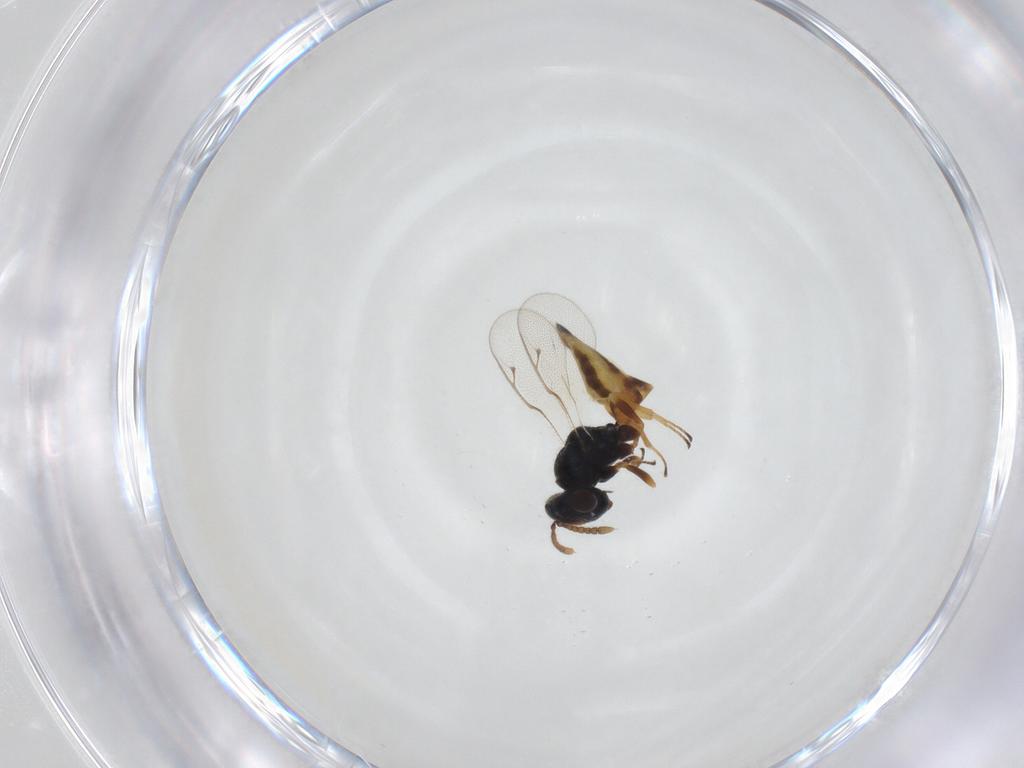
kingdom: Animalia
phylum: Arthropoda
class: Insecta
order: Hymenoptera
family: Pteromalidae
